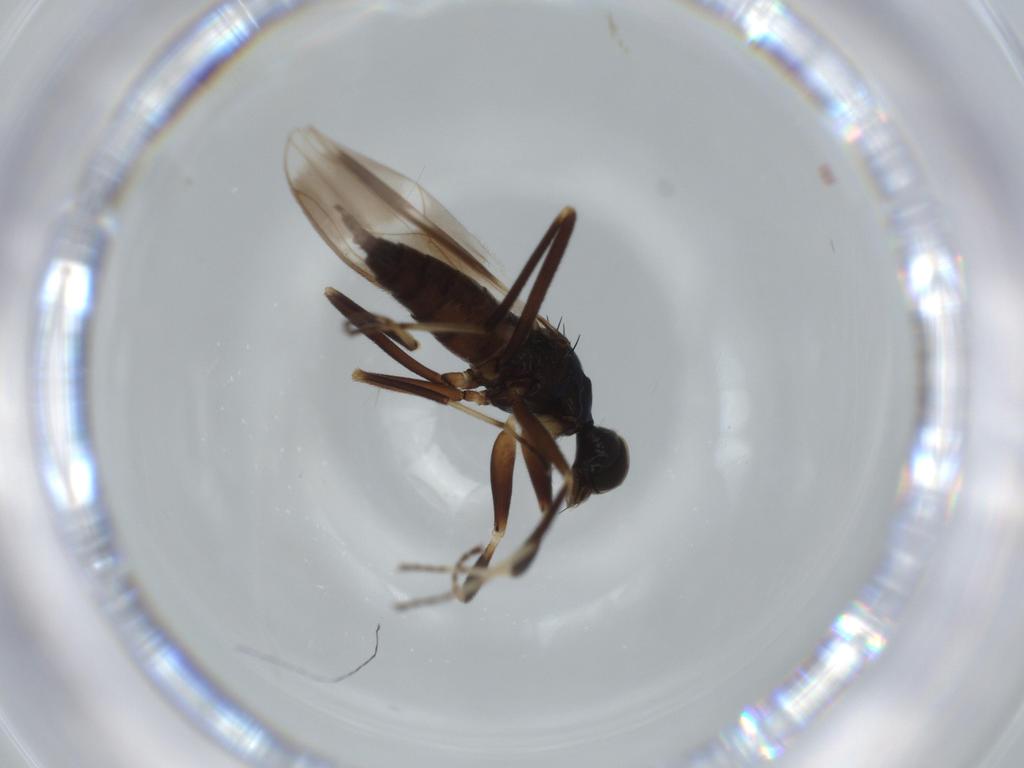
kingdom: Animalia
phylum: Arthropoda
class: Insecta
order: Diptera
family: Hybotidae
